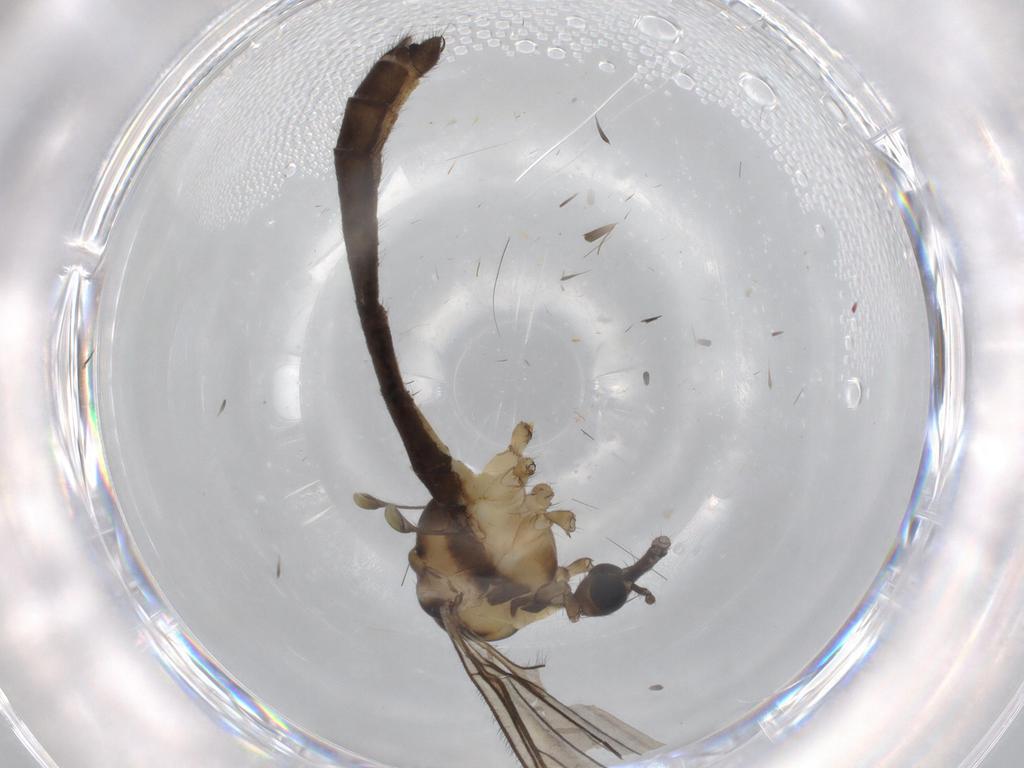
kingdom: Animalia
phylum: Arthropoda
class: Insecta
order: Diptera
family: Limoniidae
